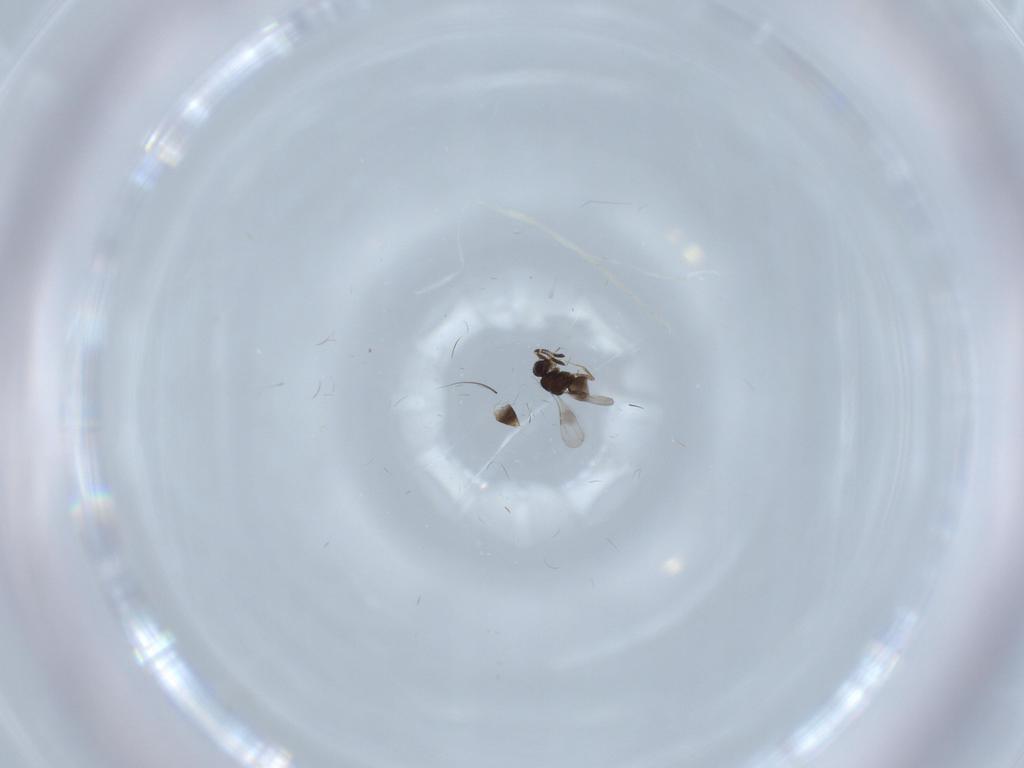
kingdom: Animalia
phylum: Arthropoda
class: Insecta
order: Hymenoptera
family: Ceraphronidae
